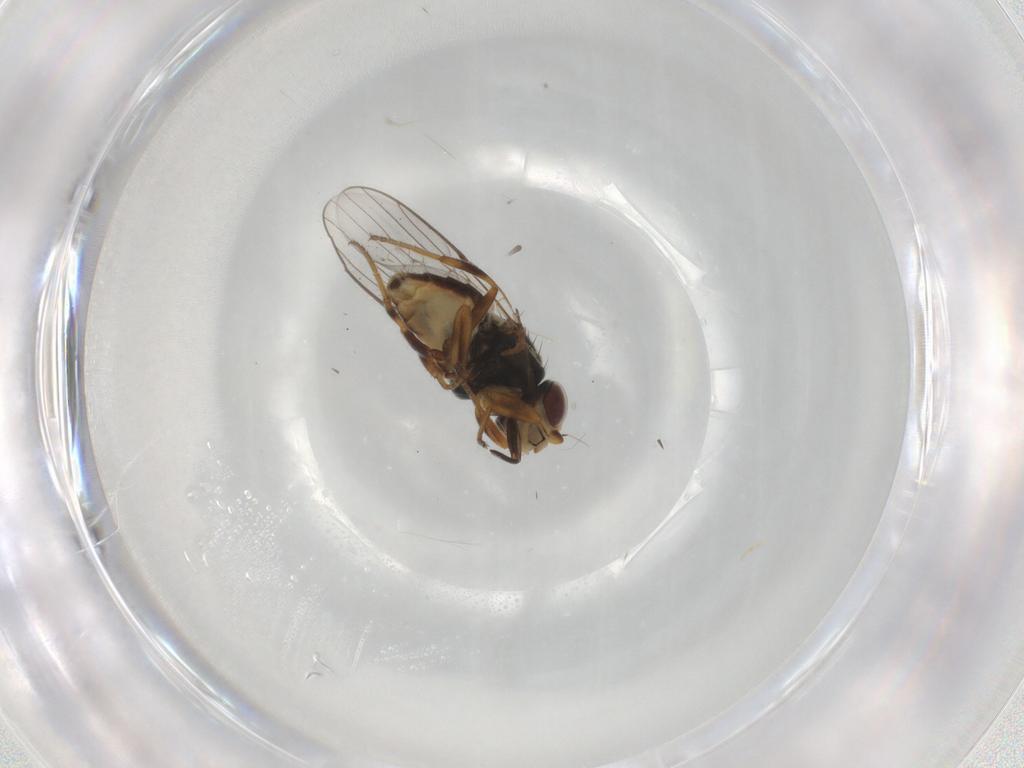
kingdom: Animalia
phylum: Arthropoda
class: Insecta
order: Diptera
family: Chloropidae
